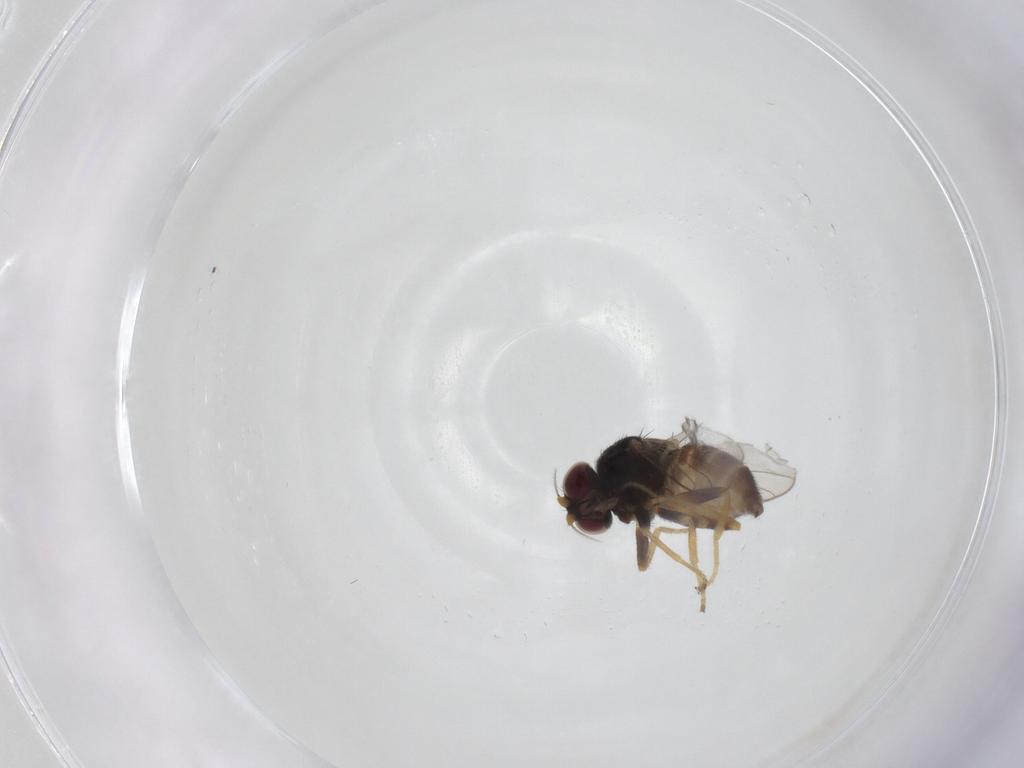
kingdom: Animalia
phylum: Arthropoda
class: Insecta
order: Diptera
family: Chloropidae
